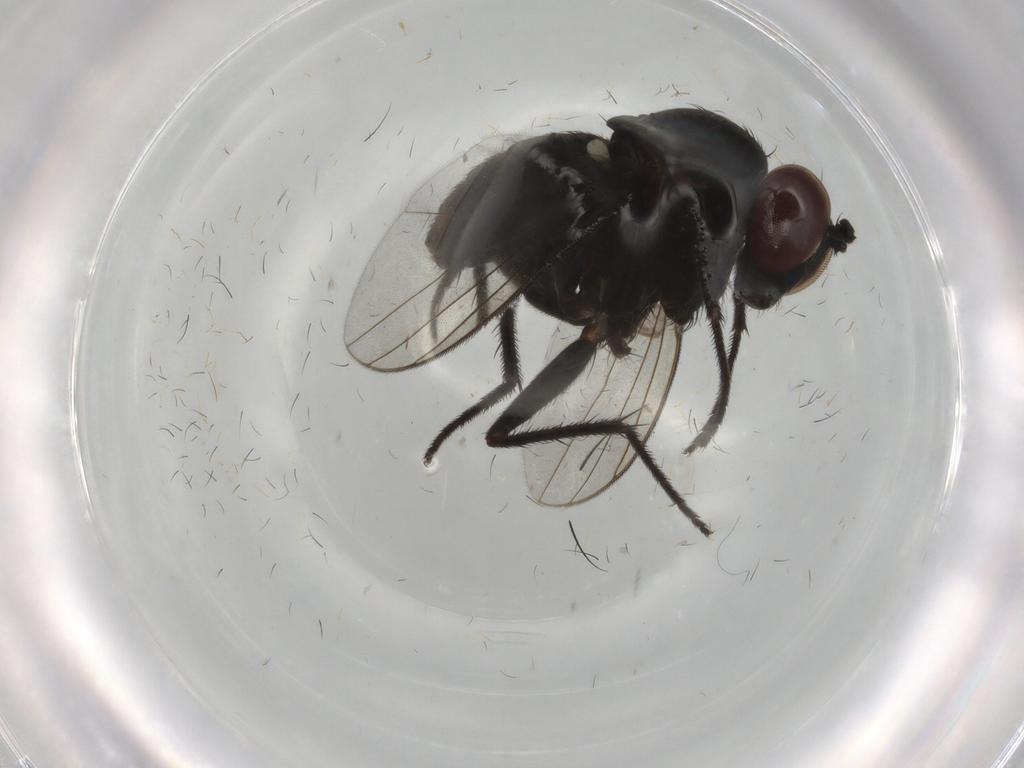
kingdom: Animalia
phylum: Arthropoda
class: Insecta
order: Diptera
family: Dolichopodidae
